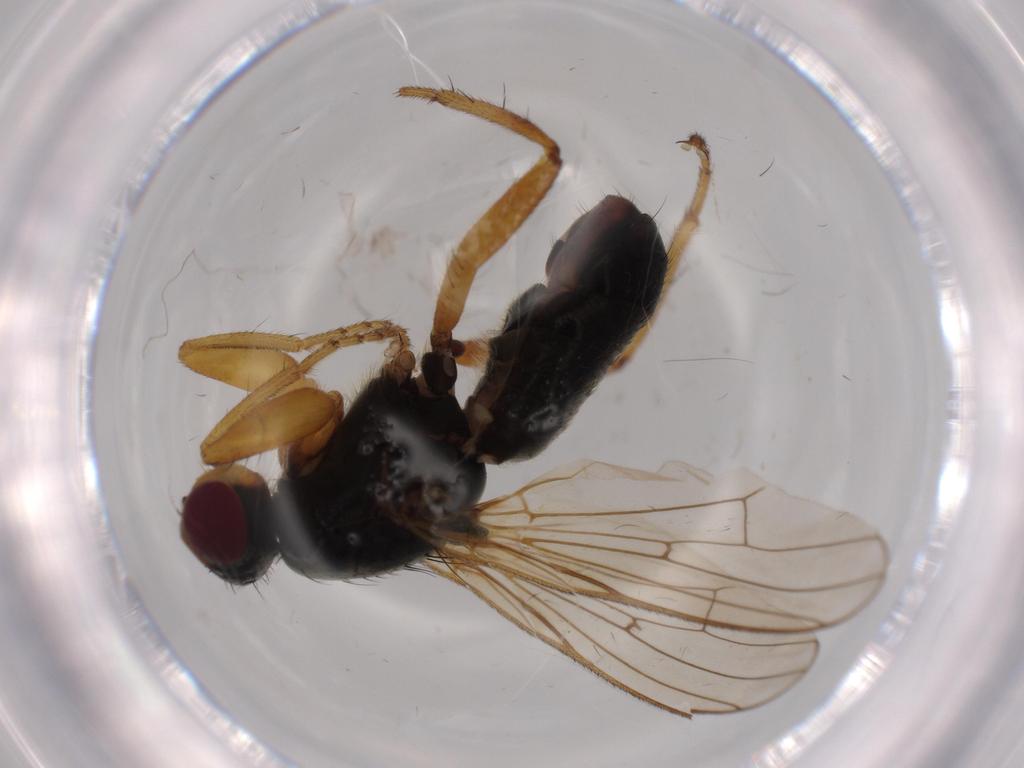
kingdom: Animalia
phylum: Arthropoda
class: Insecta
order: Diptera
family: Scathophagidae
